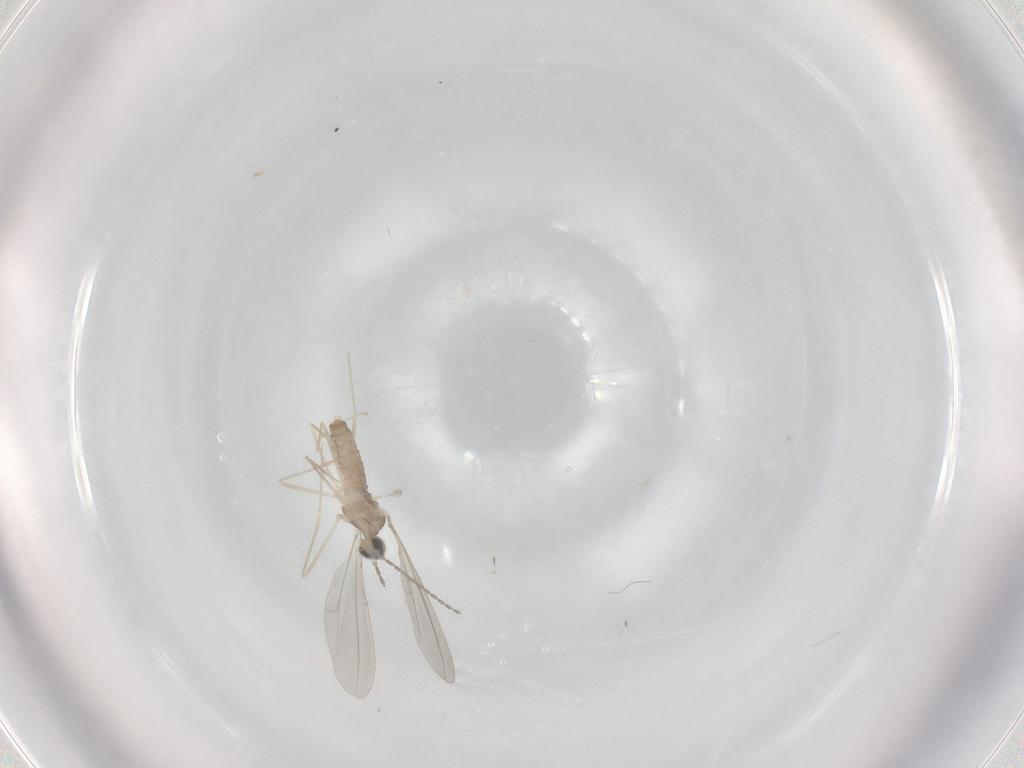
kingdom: Animalia
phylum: Arthropoda
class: Insecta
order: Diptera
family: Cecidomyiidae
